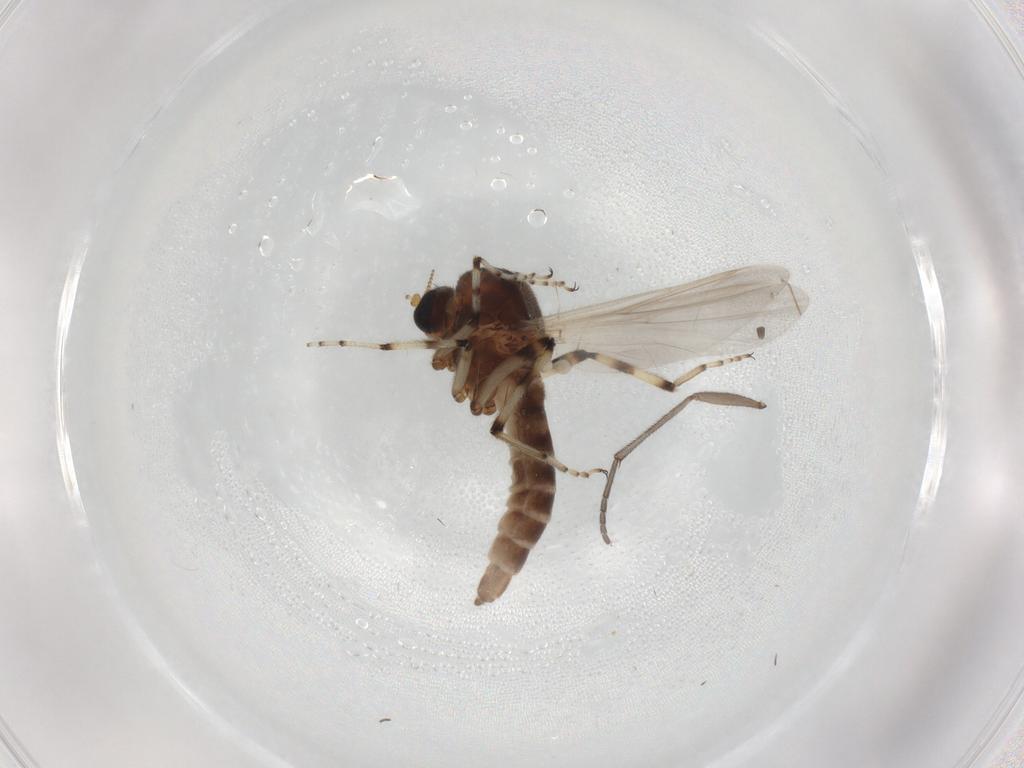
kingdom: Animalia
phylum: Arthropoda
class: Insecta
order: Diptera
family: Ceratopogonidae
